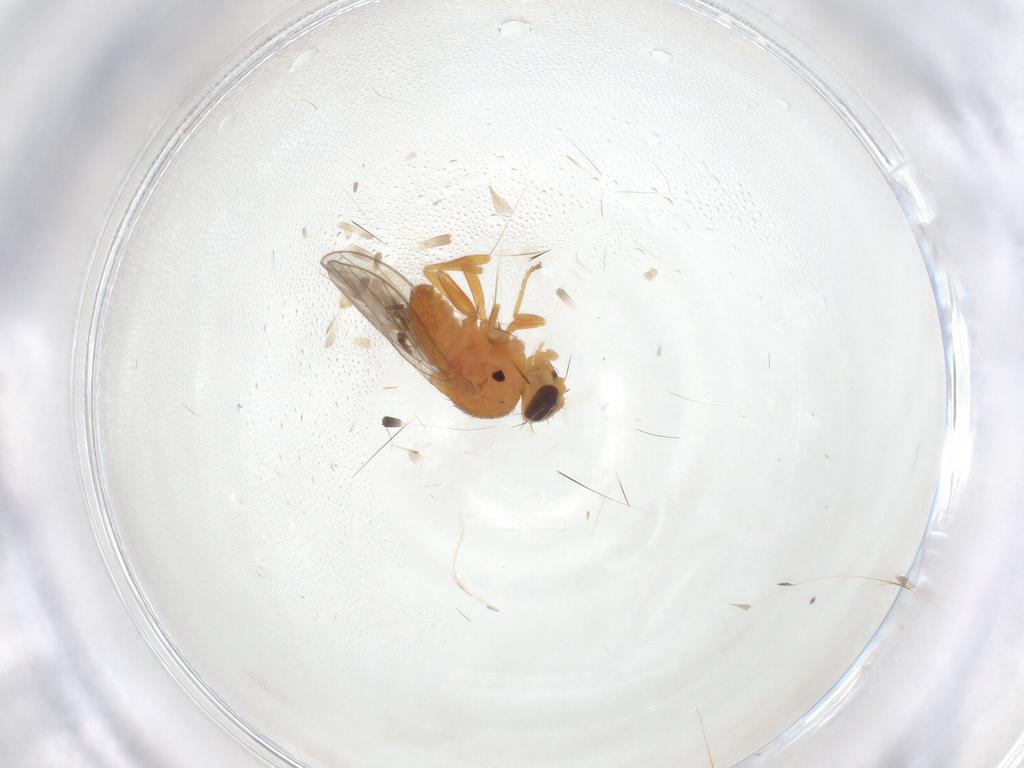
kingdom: Animalia
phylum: Arthropoda
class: Insecta
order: Diptera
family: Chloropidae
